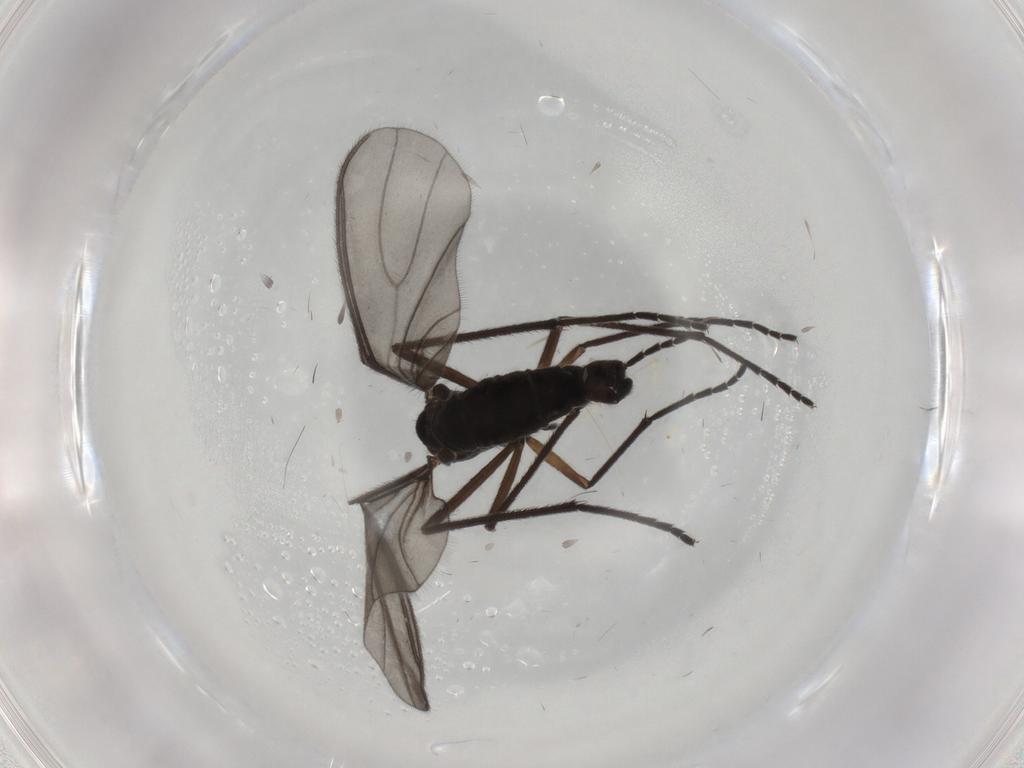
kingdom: Animalia
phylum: Arthropoda
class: Insecta
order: Diptera
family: Sciaridae
